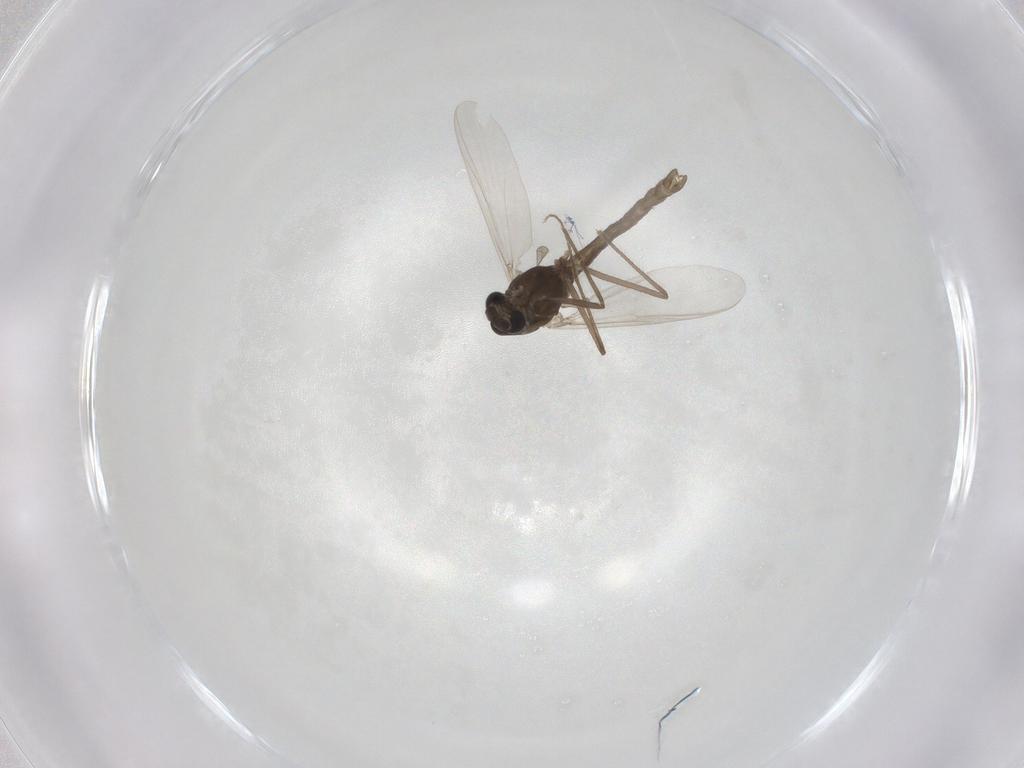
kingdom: Animalia
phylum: Arthropoda
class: Insecta
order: Diptera
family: Chironomidae
